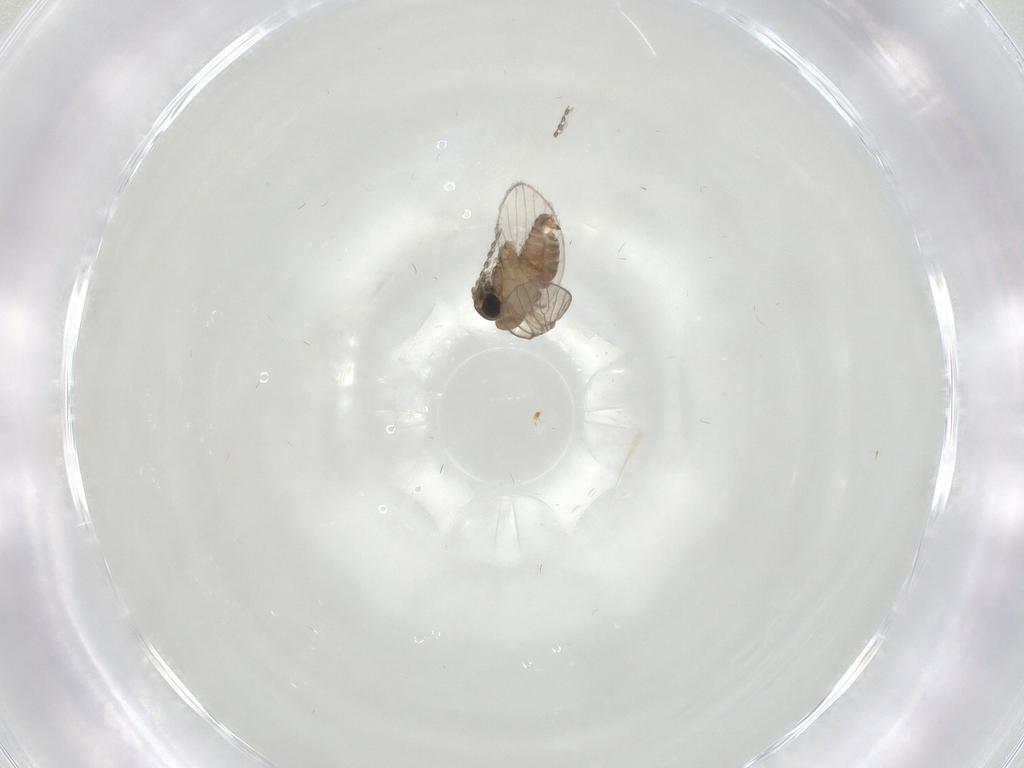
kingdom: Animalia
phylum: Arthropoda
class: Insecta
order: Diptera
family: Psychodidae
